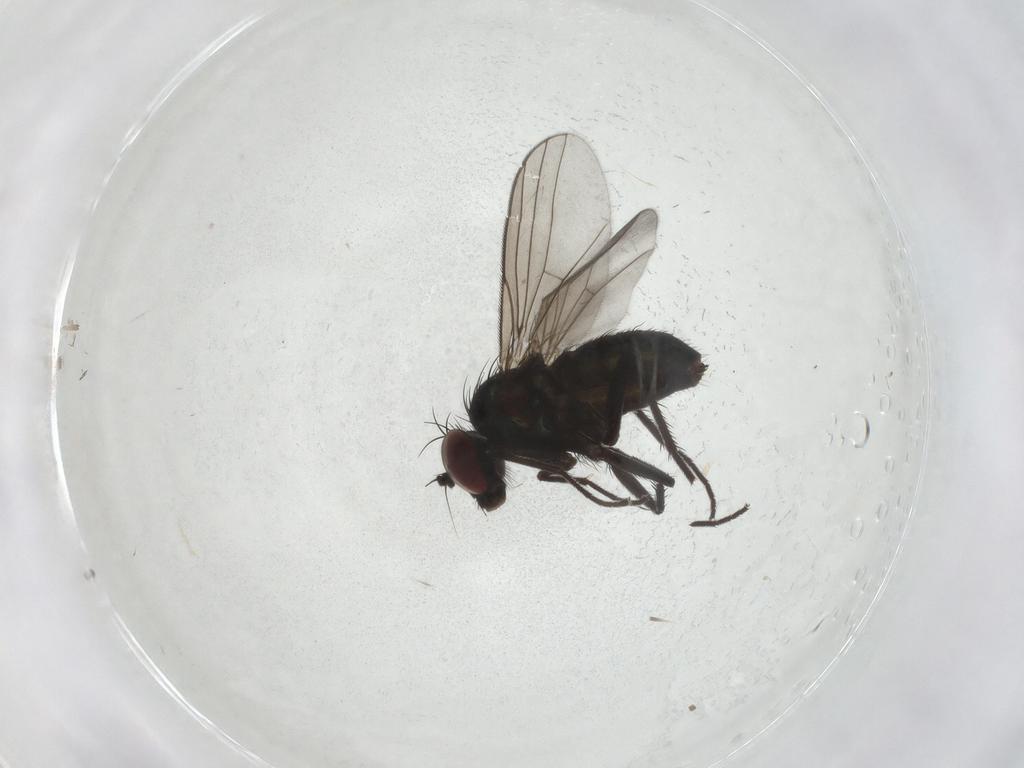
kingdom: Animalia
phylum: Arthropoda
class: Insecta
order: Diptera
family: Dolichopodidae
